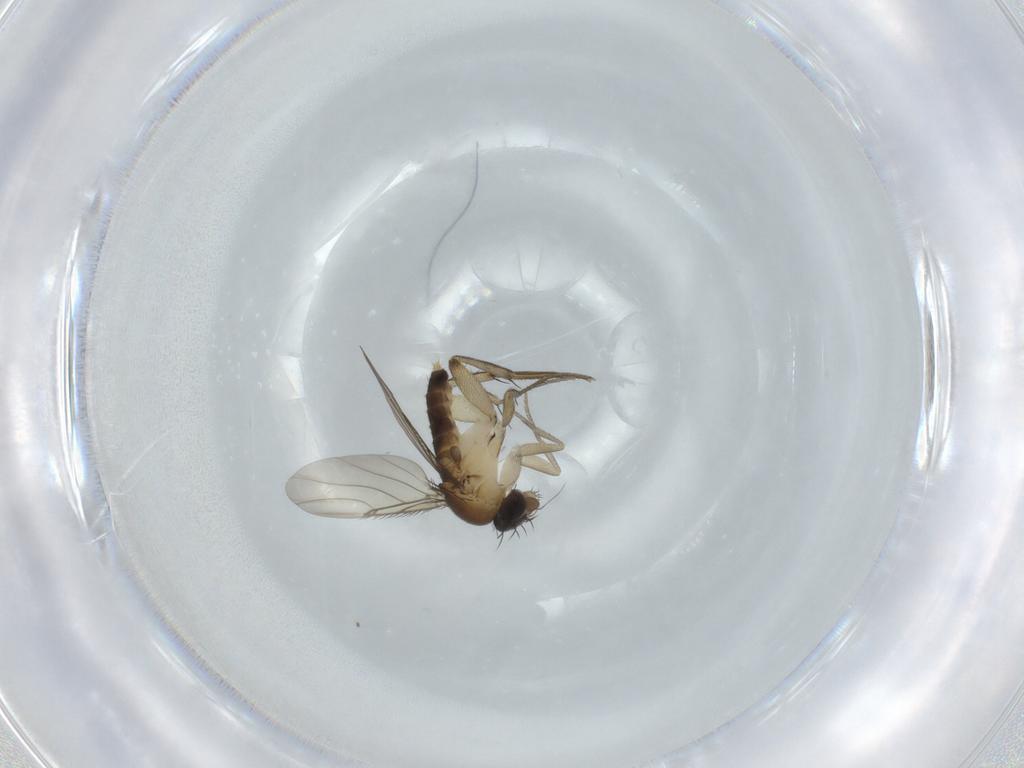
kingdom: Animalia
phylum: Arthropoda
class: Insecta
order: Diptera
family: Phoridae
